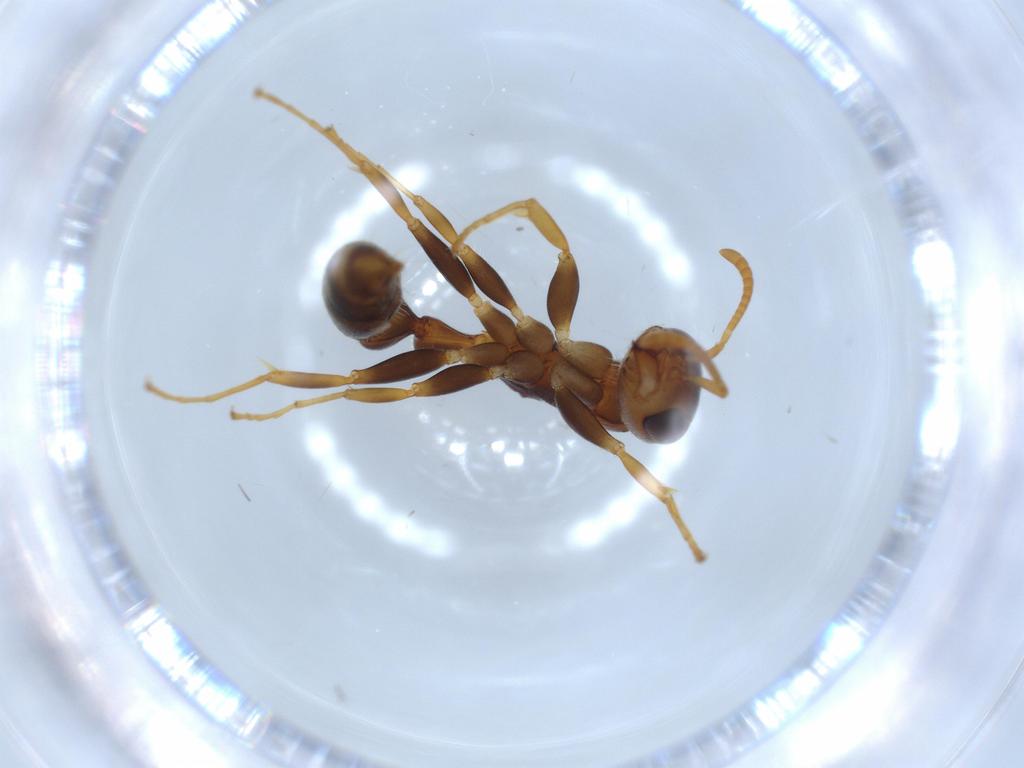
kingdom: Animalia
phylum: Arthropoda
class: Insecta
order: Hymenoptera
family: Formicidae
